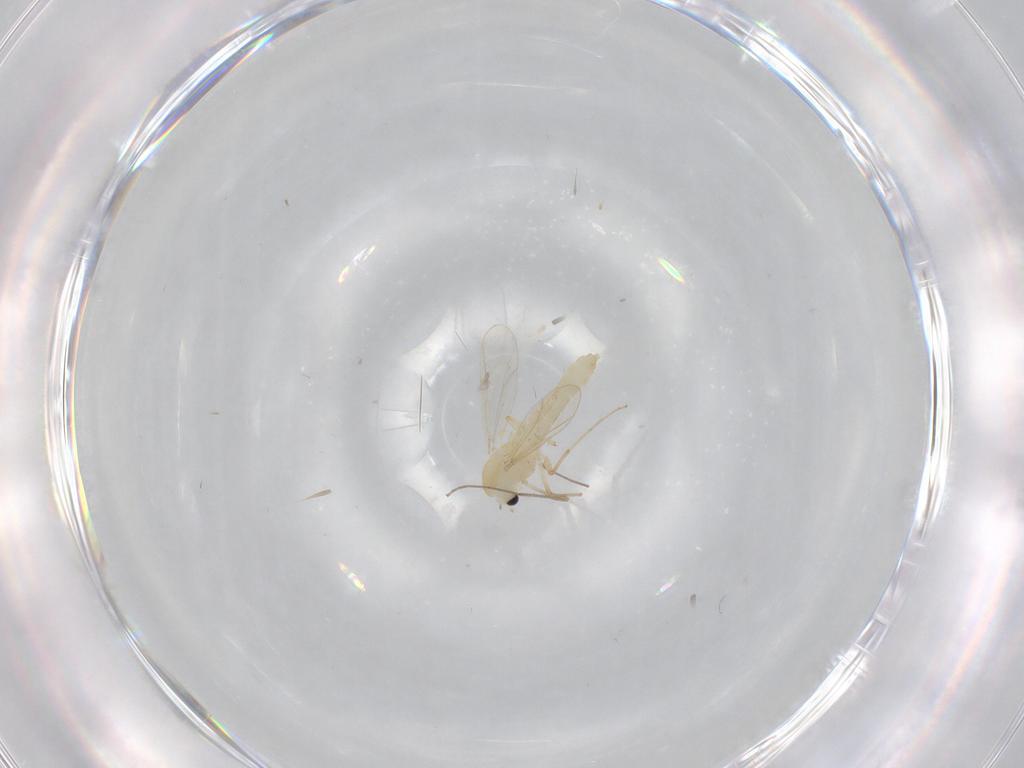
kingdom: Animalia
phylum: Arthropoda
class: Insecta
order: Diptera
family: Chironomidae
